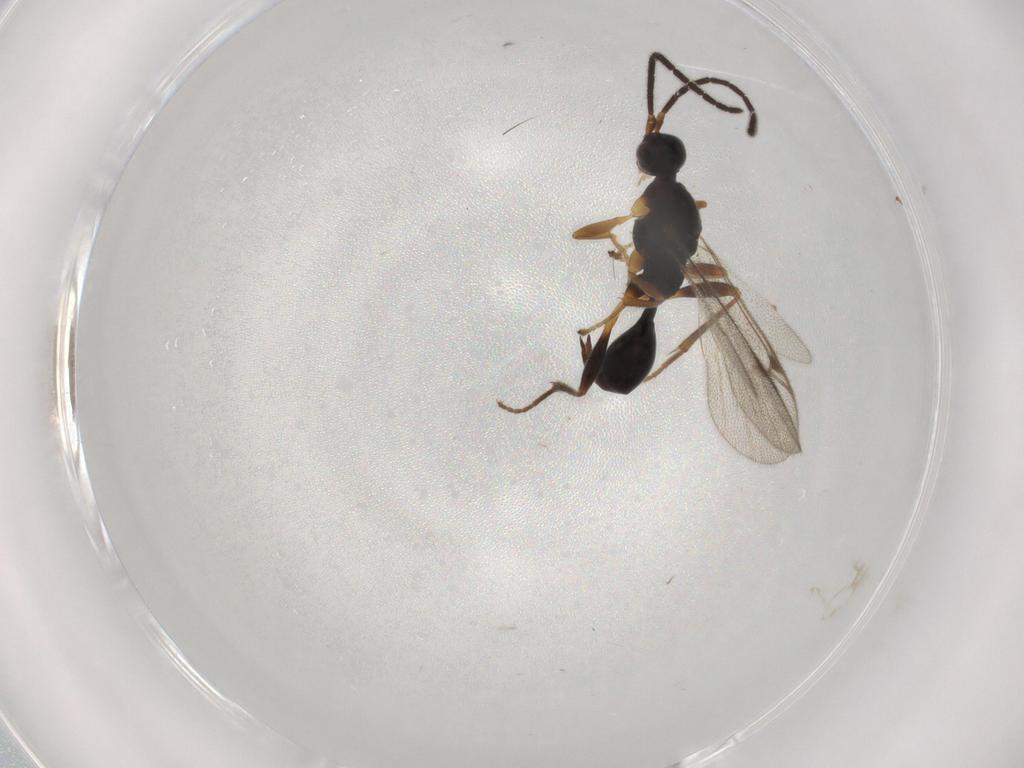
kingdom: Animalia
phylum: Arthropoda
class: Insecta
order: Hymenoptera
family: Proctotrupidae
